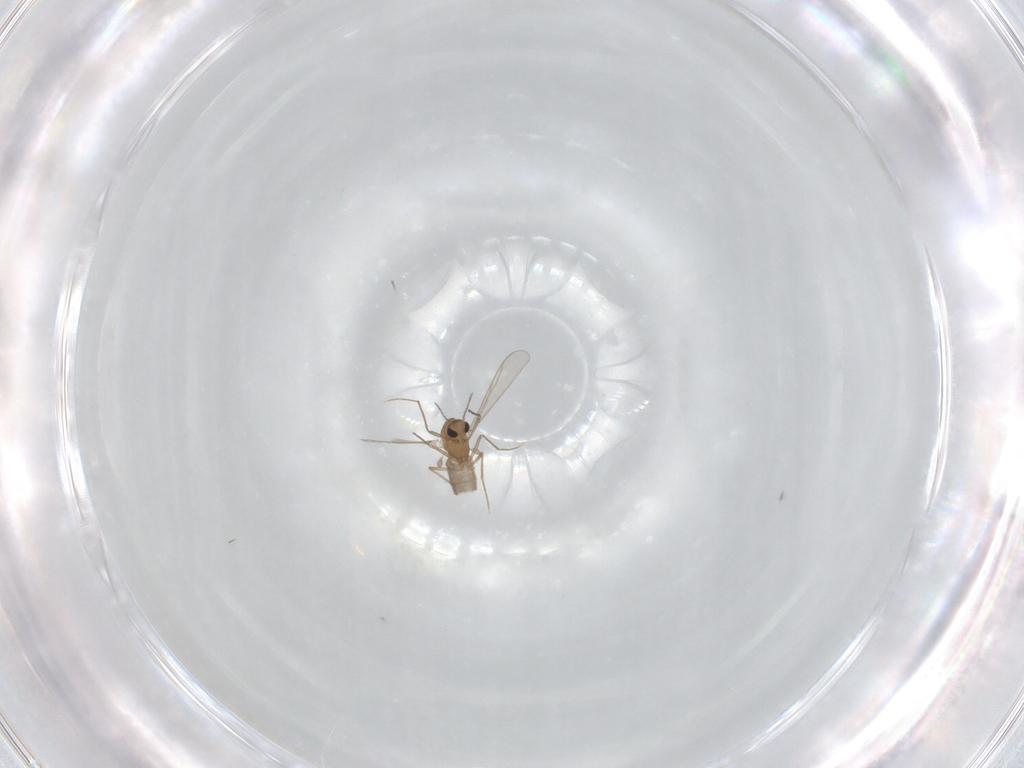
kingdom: Animalia
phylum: Arthropoda
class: Insecta
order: Diptera
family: Chironomidae
